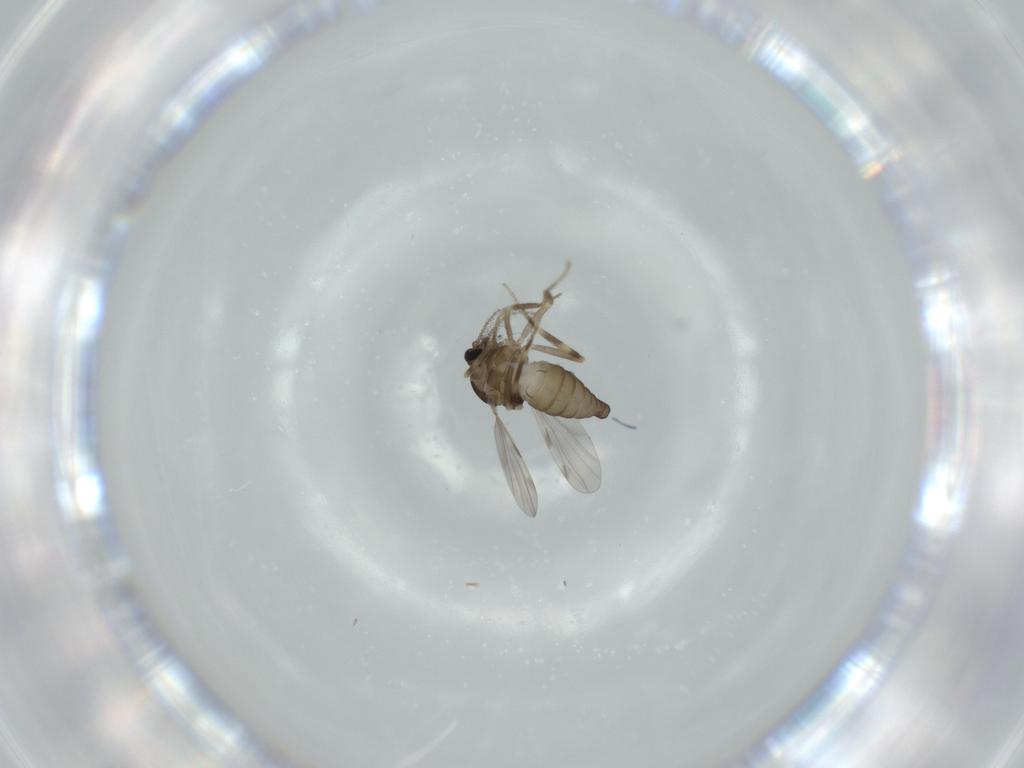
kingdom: Animalia
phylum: Arthropoda
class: Insecta
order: Diptera
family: Ceratopogonidae
